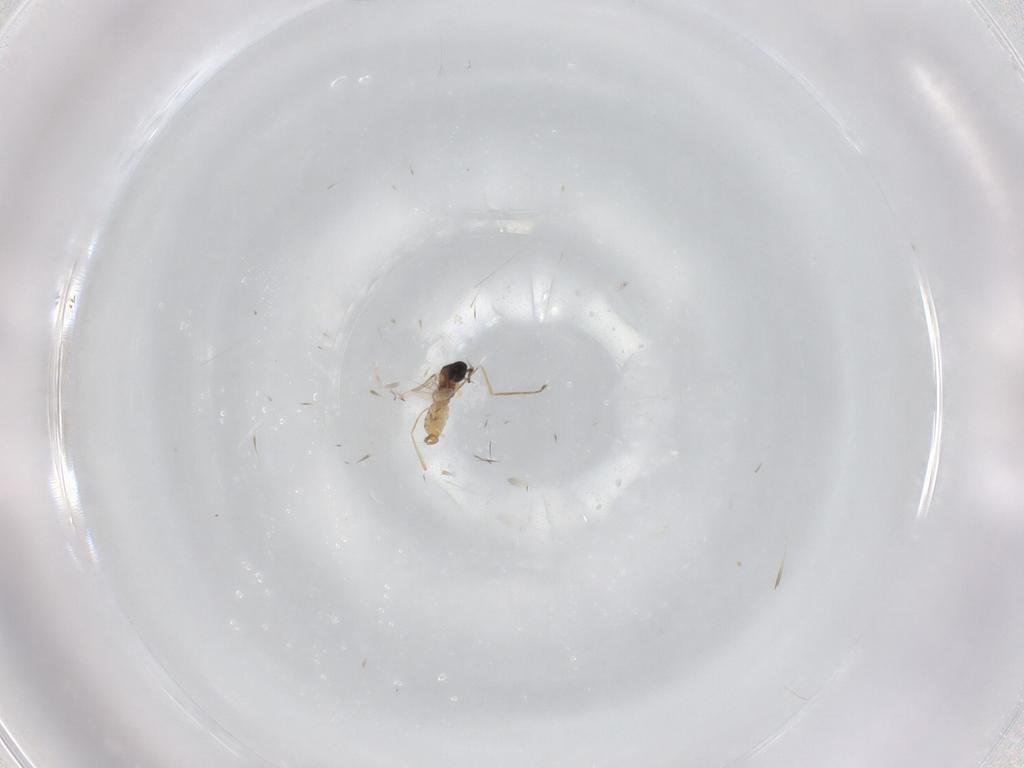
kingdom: Animalia
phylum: Arthropoda
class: Insecta
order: Diptera
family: Cecidomyiidae
